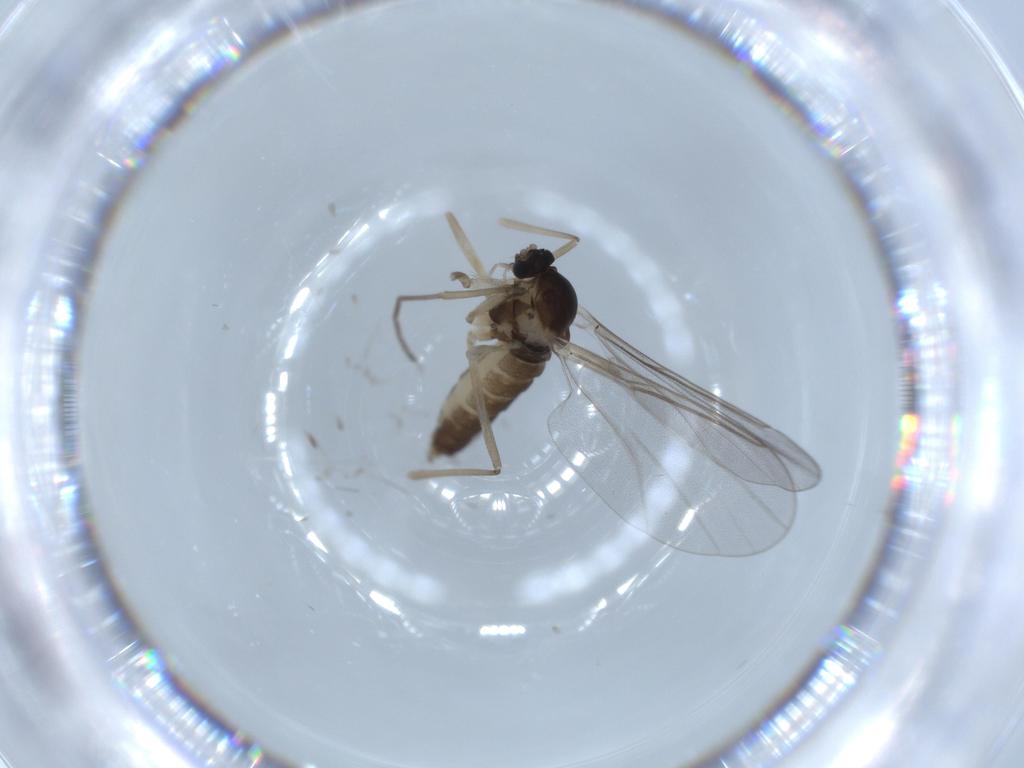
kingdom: Animalia
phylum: Arthropoda
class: Insecta
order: Diptera
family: Cecidomyiidae
